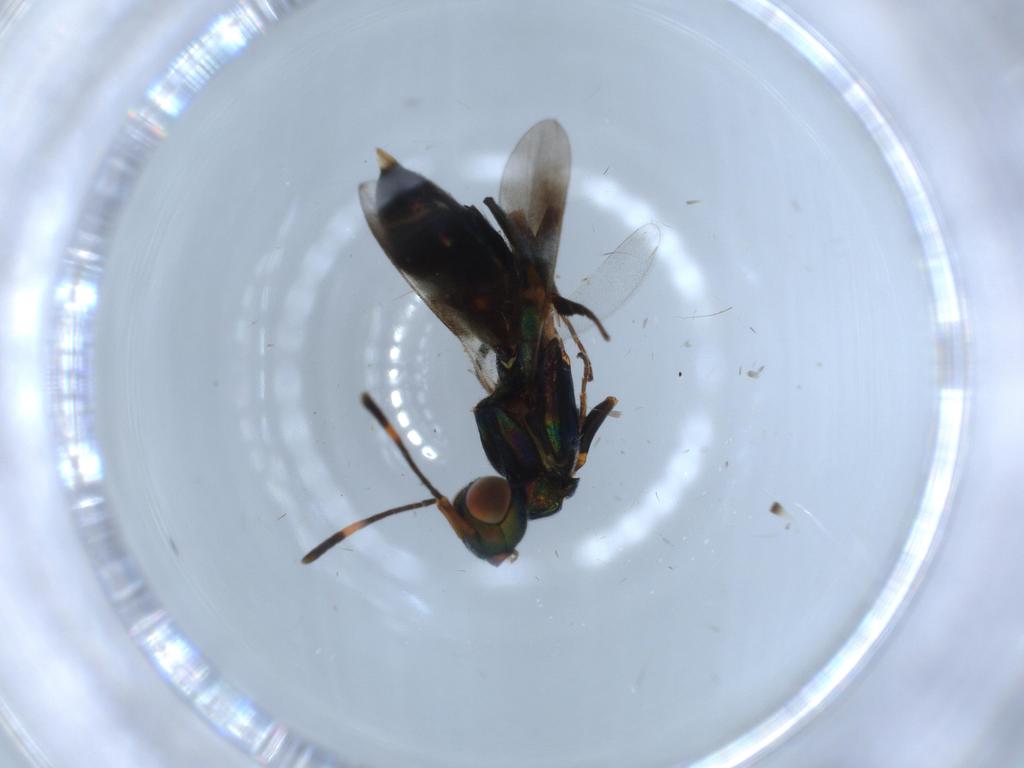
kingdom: Animalia
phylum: Arthropoda
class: Insecta
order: Hymenoptera
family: Eupelmidae
